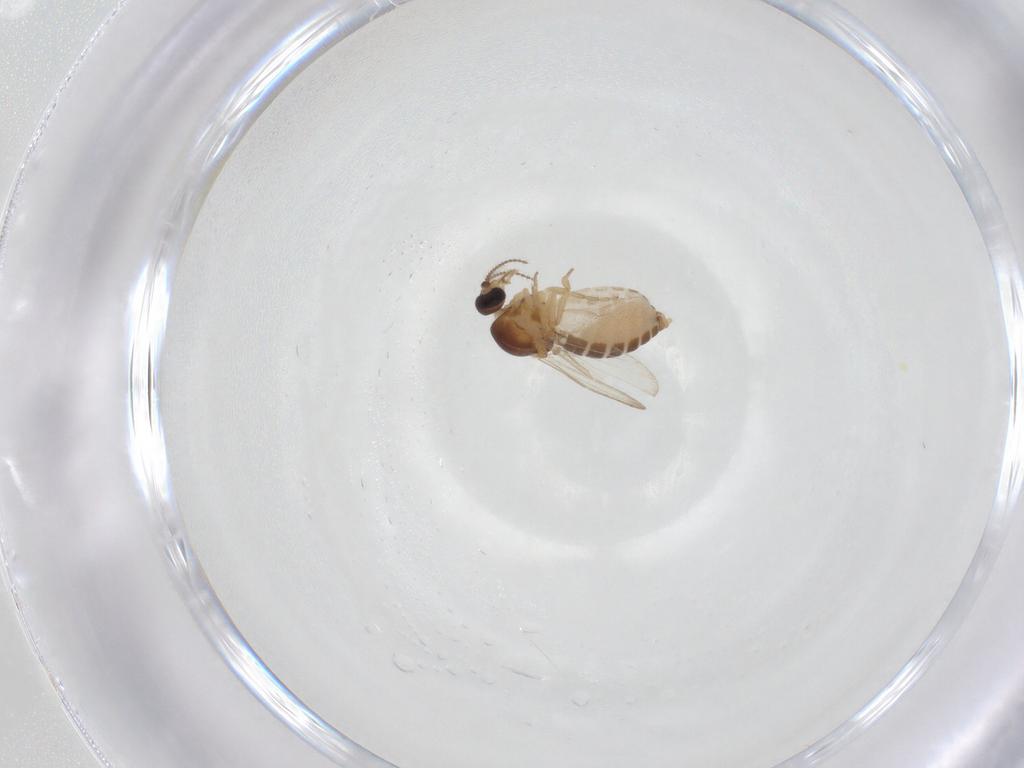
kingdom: Animalia
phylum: Arthropoda
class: Insecta
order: Diptera
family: Ceratopogonidae
